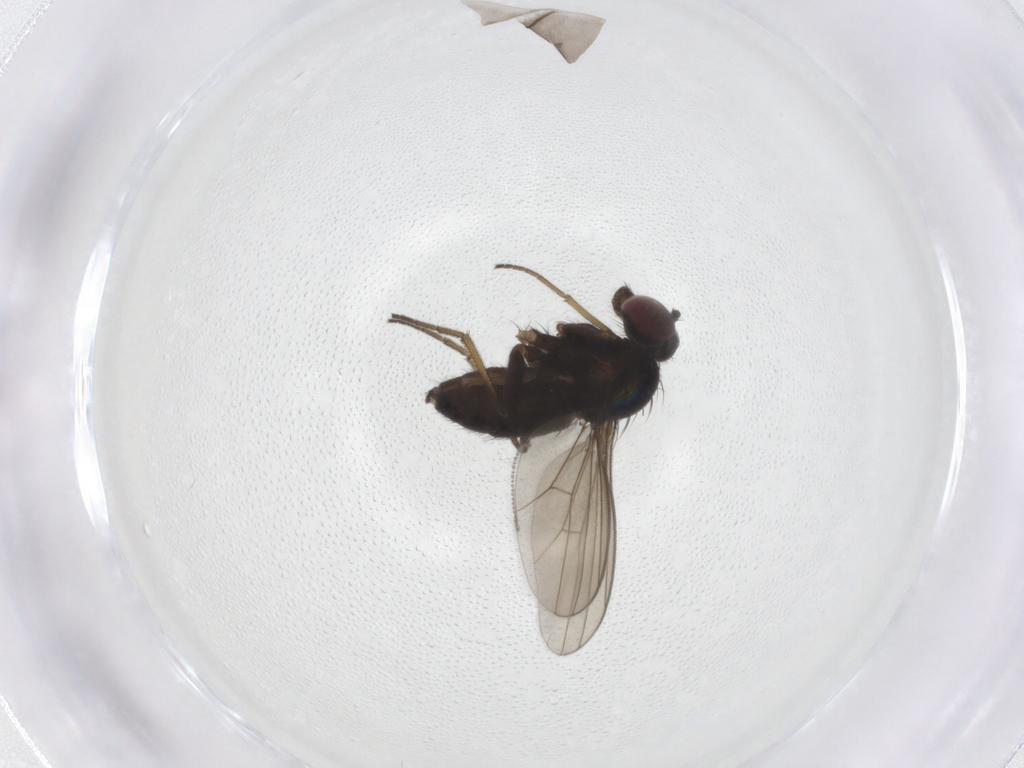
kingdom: Animalia
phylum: Arthropoda
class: Insecta
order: Diptera
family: Dolichopodidae
